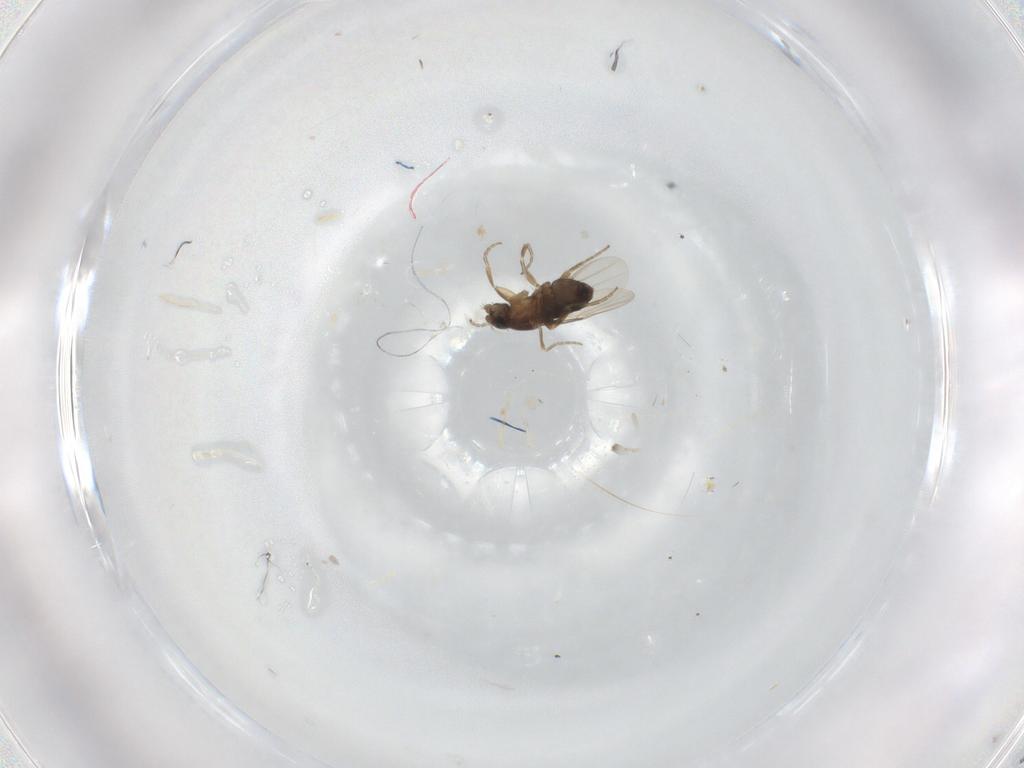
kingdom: Animalia
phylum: Arthropoda
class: Insecta
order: Diptera
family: Phoridae
